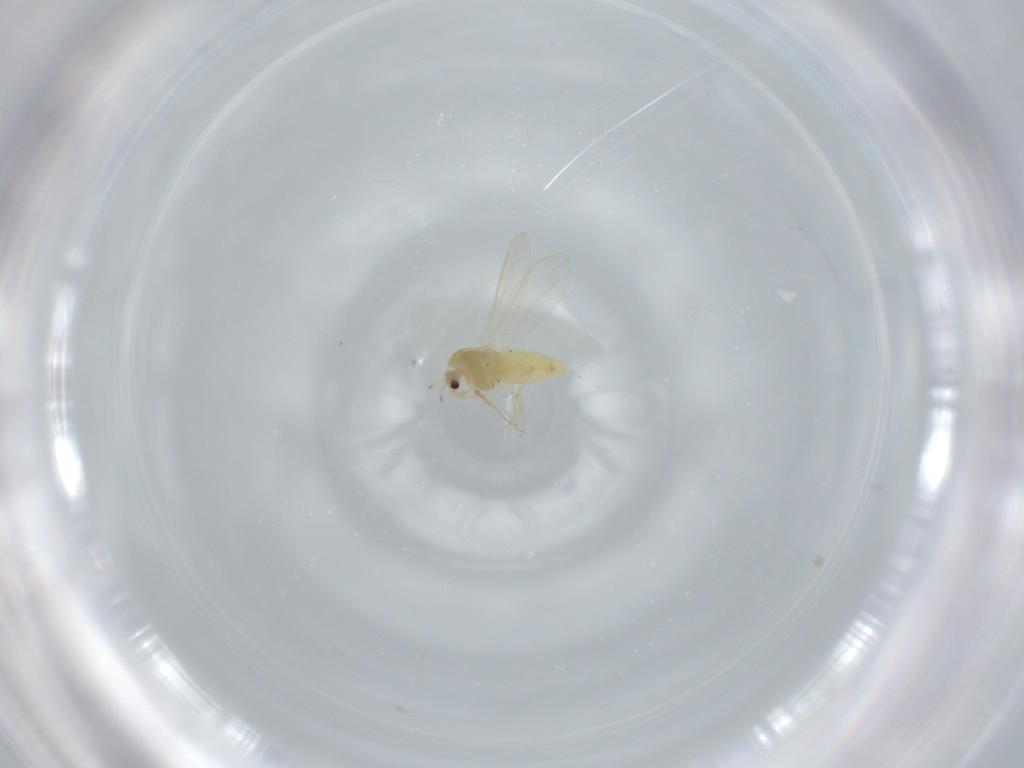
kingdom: Animalia
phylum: Arthropoda
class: Insecta
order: Diptera
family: Chironomidae
